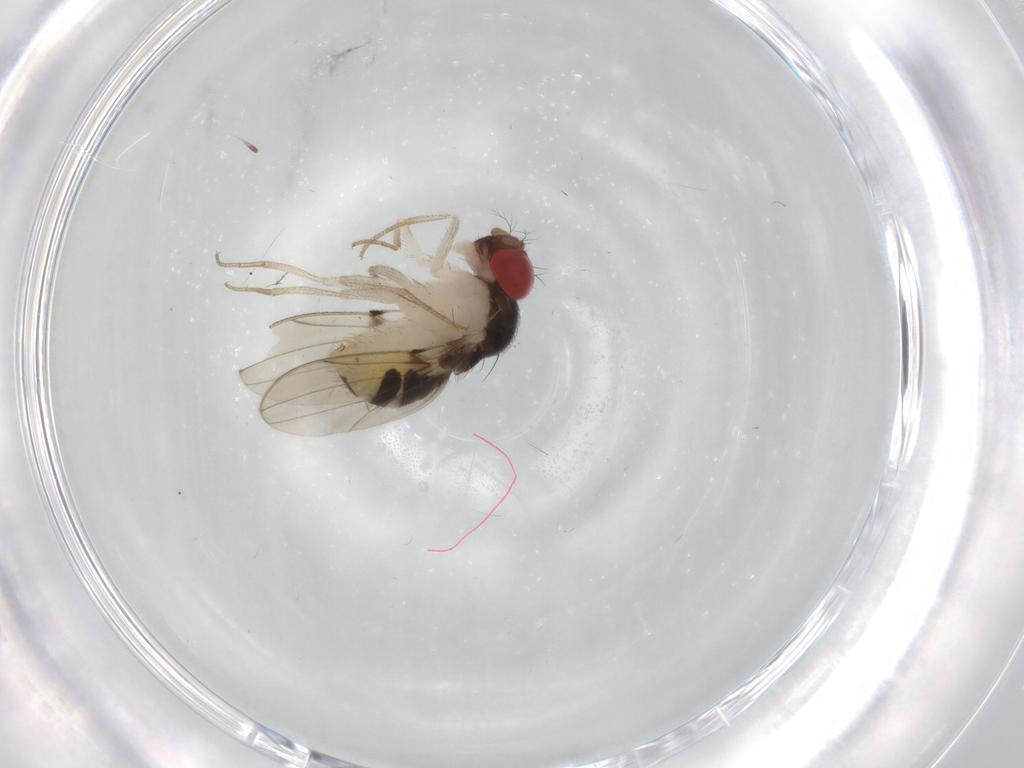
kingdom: Animalia
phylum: Arthropoda
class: Insecta
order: Diptera
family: Drosophilidae
